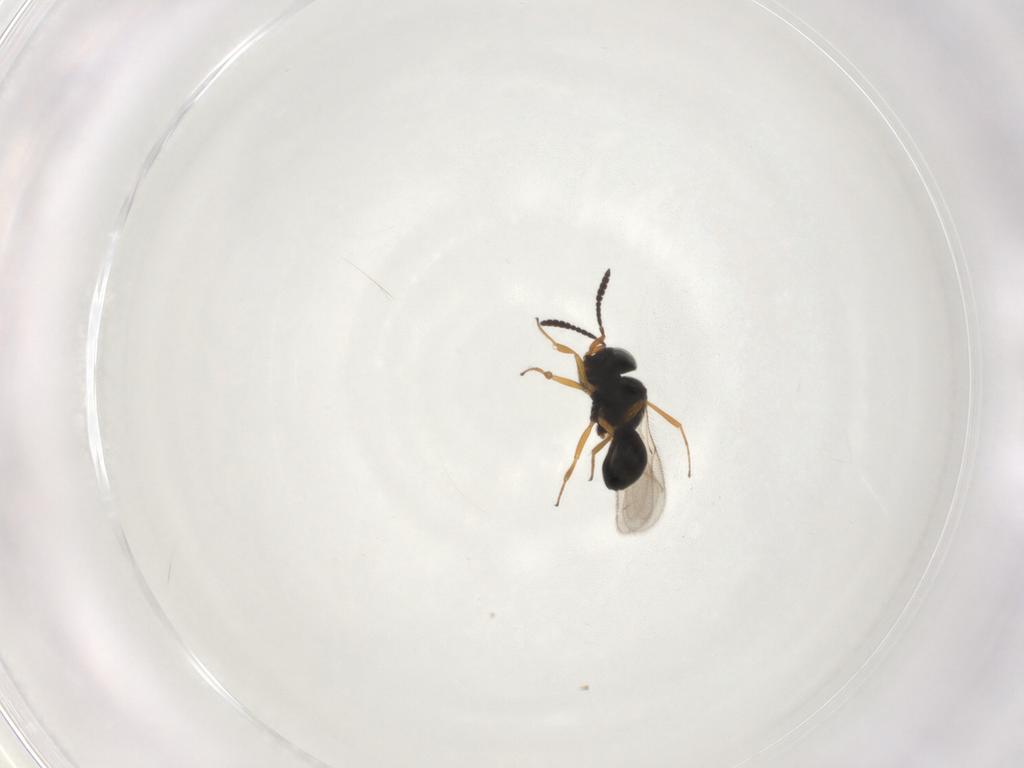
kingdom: Animalia
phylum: Arthropoda
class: Insecta
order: Hymenoptera
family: Scelionidae
